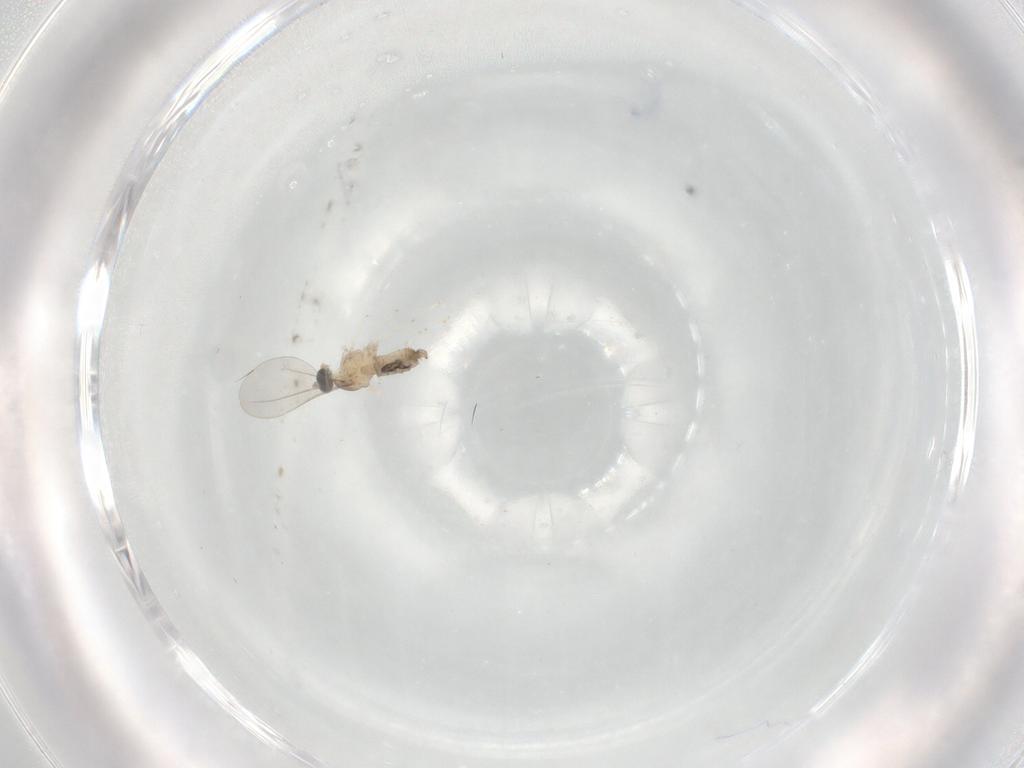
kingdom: Animalia
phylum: Arthropoda
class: Insecta
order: Diptera
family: Cecidomyiidae
